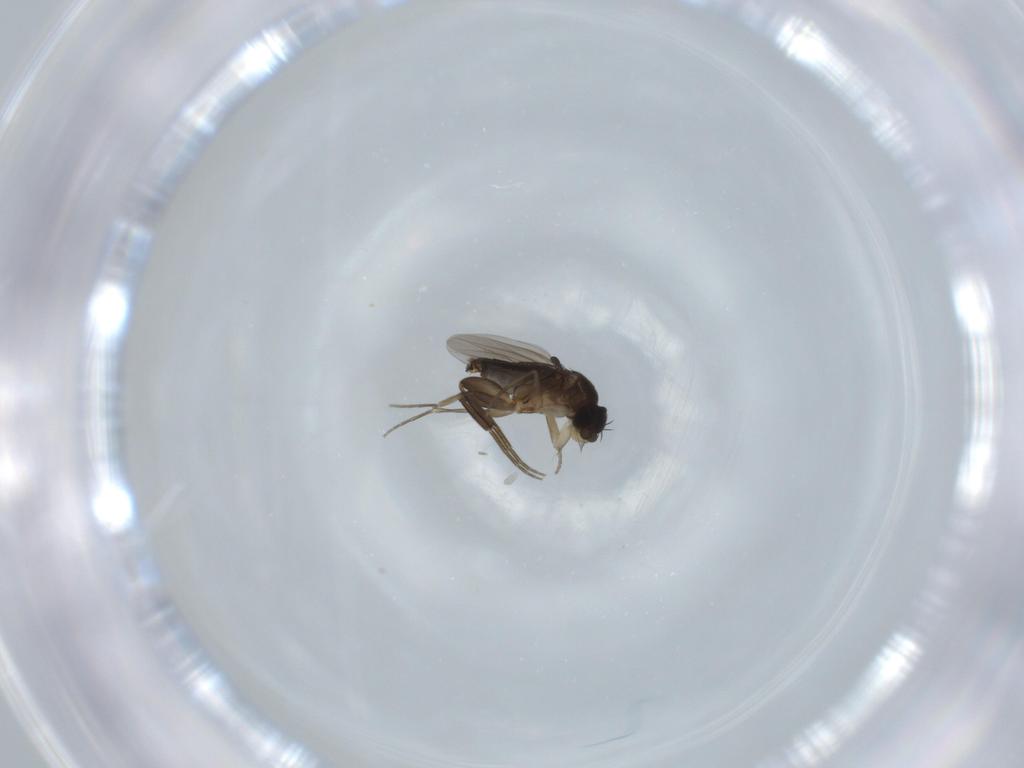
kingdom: Animalia
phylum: Arthropoda
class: Insecta
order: Diptera
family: Phoridae
